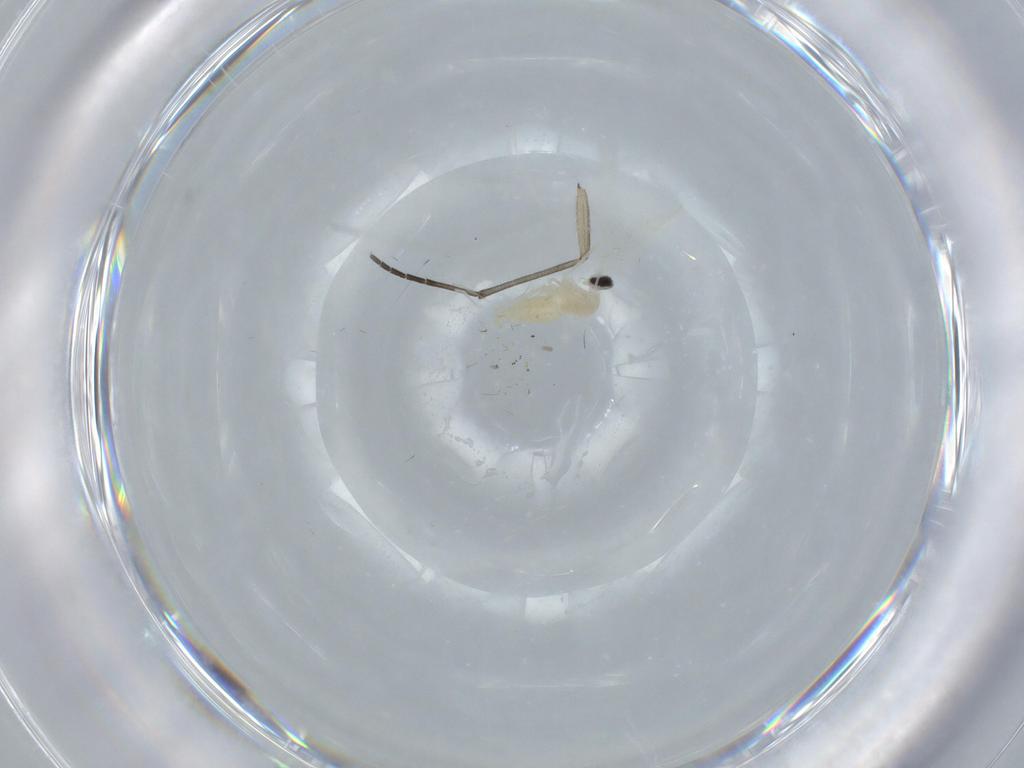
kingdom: Animalia
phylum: Arthropoda
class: Insecta
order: Diptera
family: Cecidomyiidae
